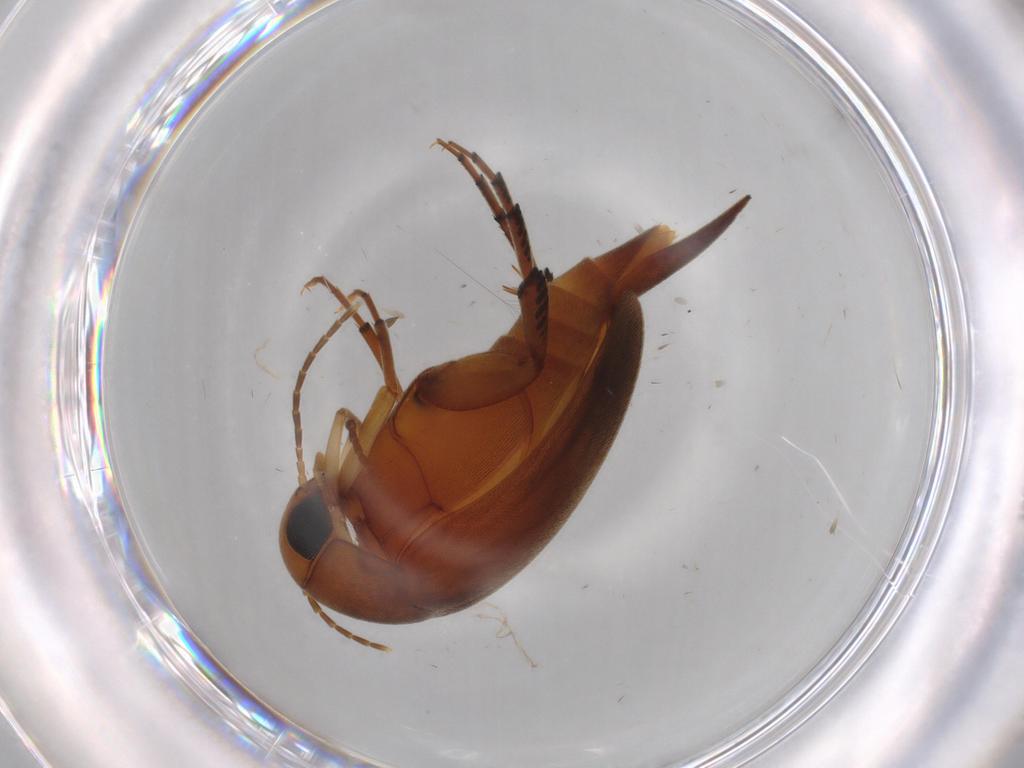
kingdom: Animalia
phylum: Arthropoda
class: Insecta
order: Coleoptera
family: Mordellidae
